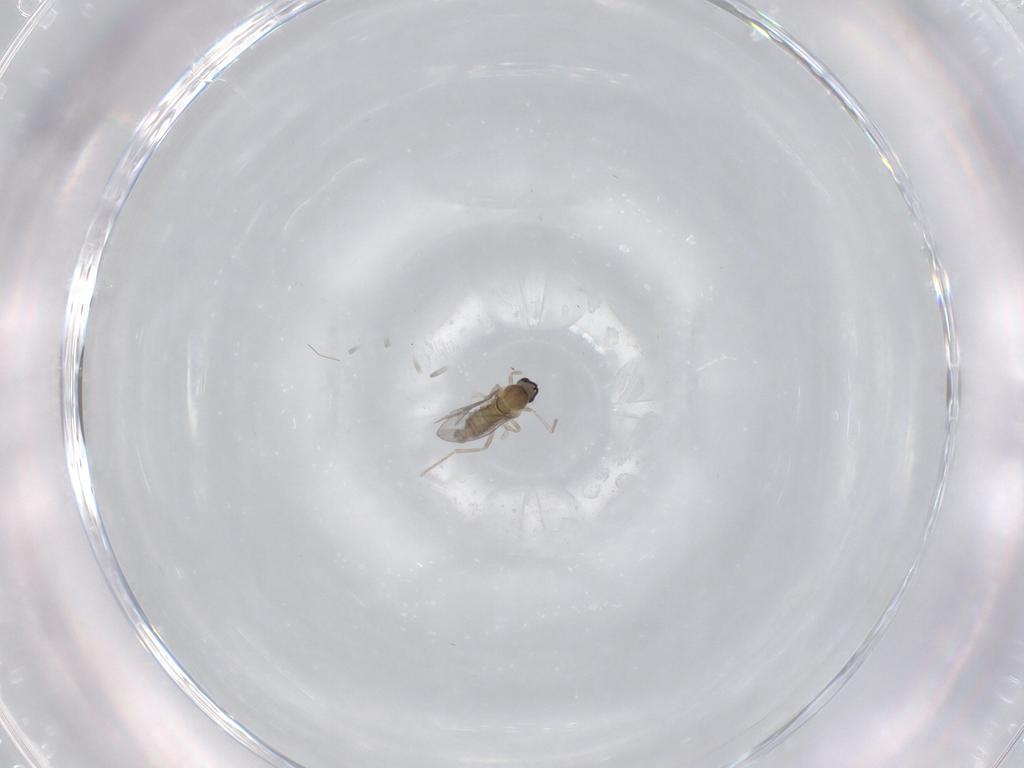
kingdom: Animalia
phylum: Arthropoda
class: Insecta
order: Diptera
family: Cecidomyiidae
